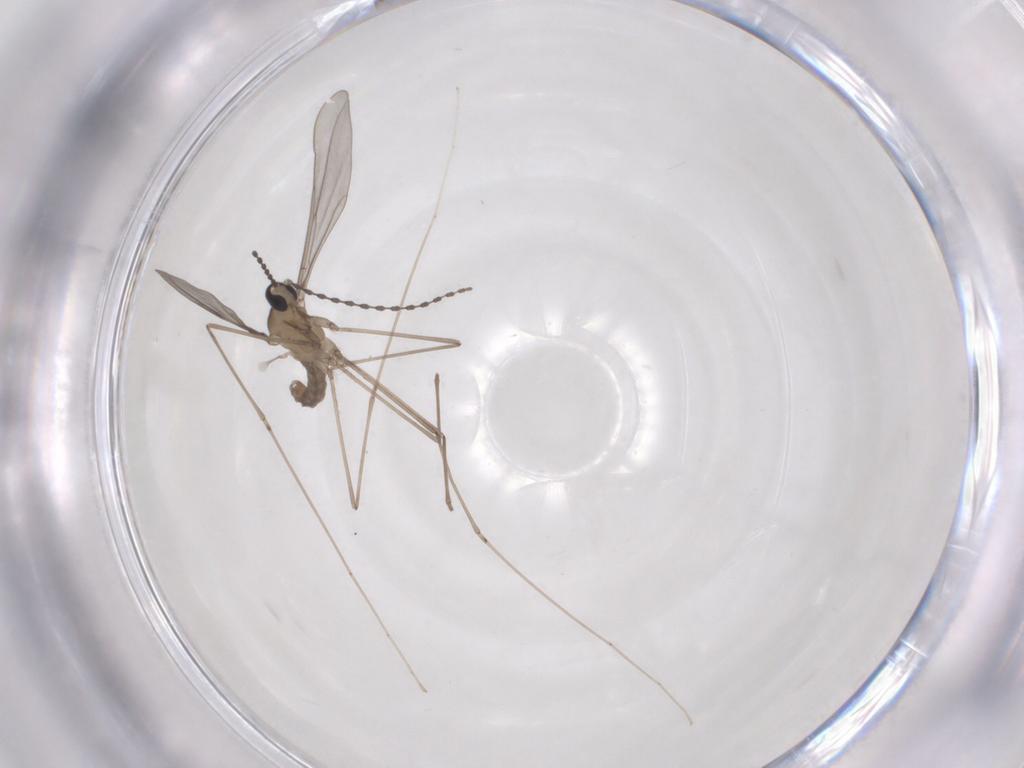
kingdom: Animalia
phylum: Arthropoda
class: Insecta
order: Diptera
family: Cecidomyiidae
